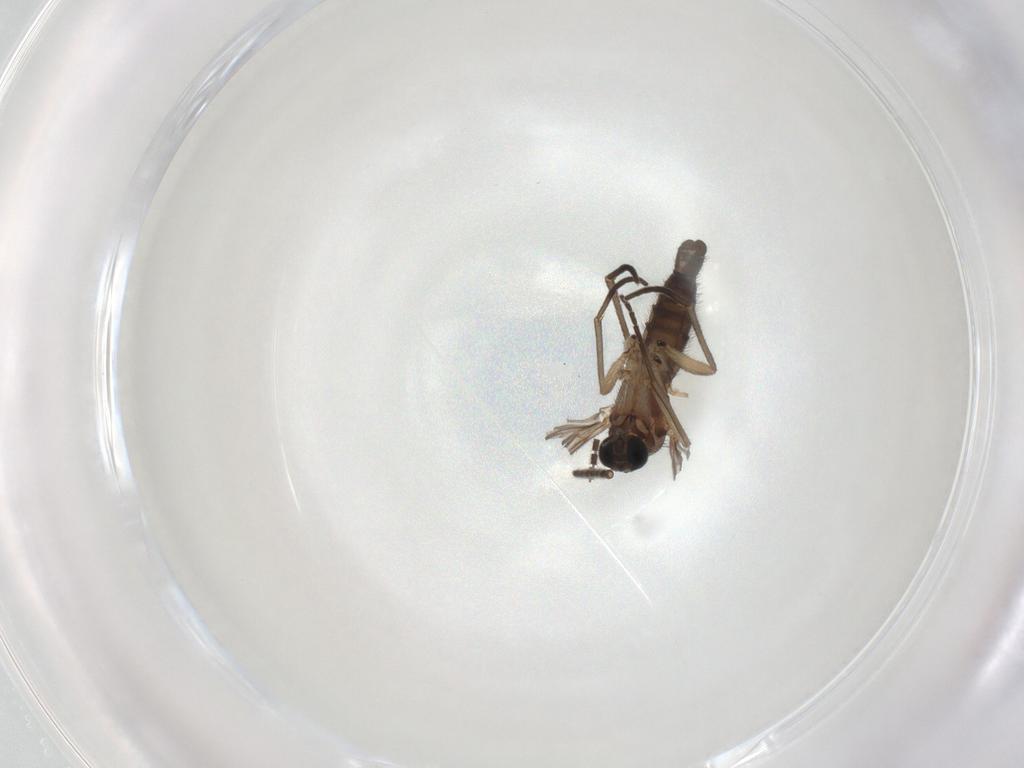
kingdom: Animalia
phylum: Arthropoda
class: Insecta
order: Diptera
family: Sciaridae
